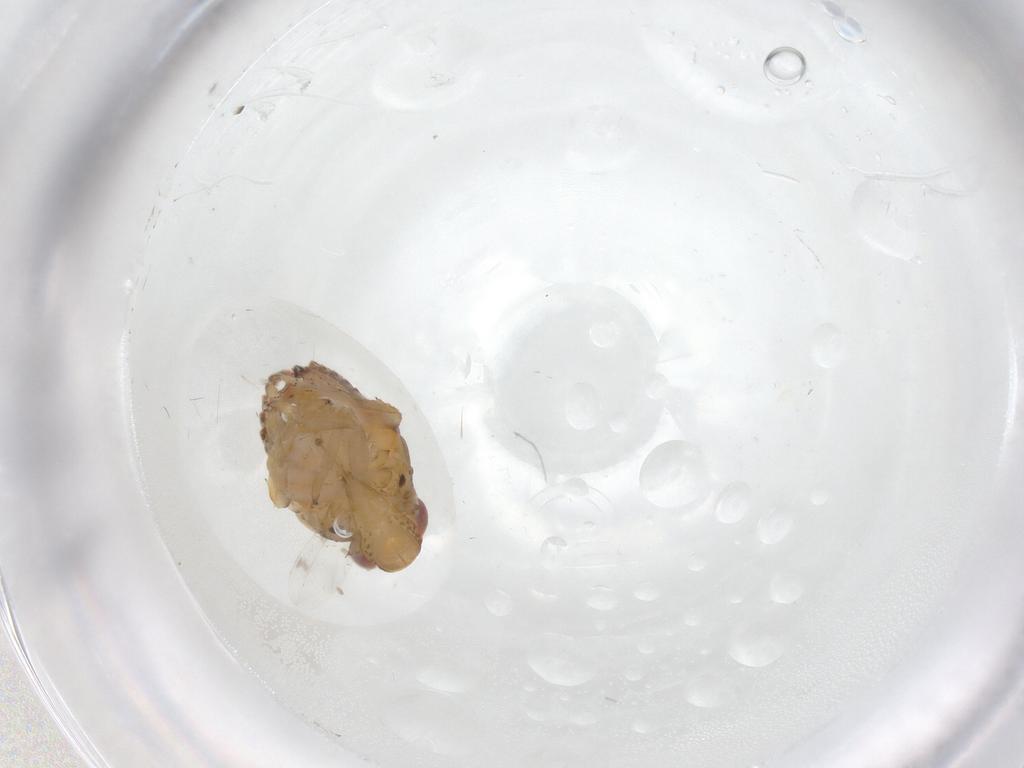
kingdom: Animalia
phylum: Arthropoda
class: Insecta
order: Hemiptera
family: Issidae
